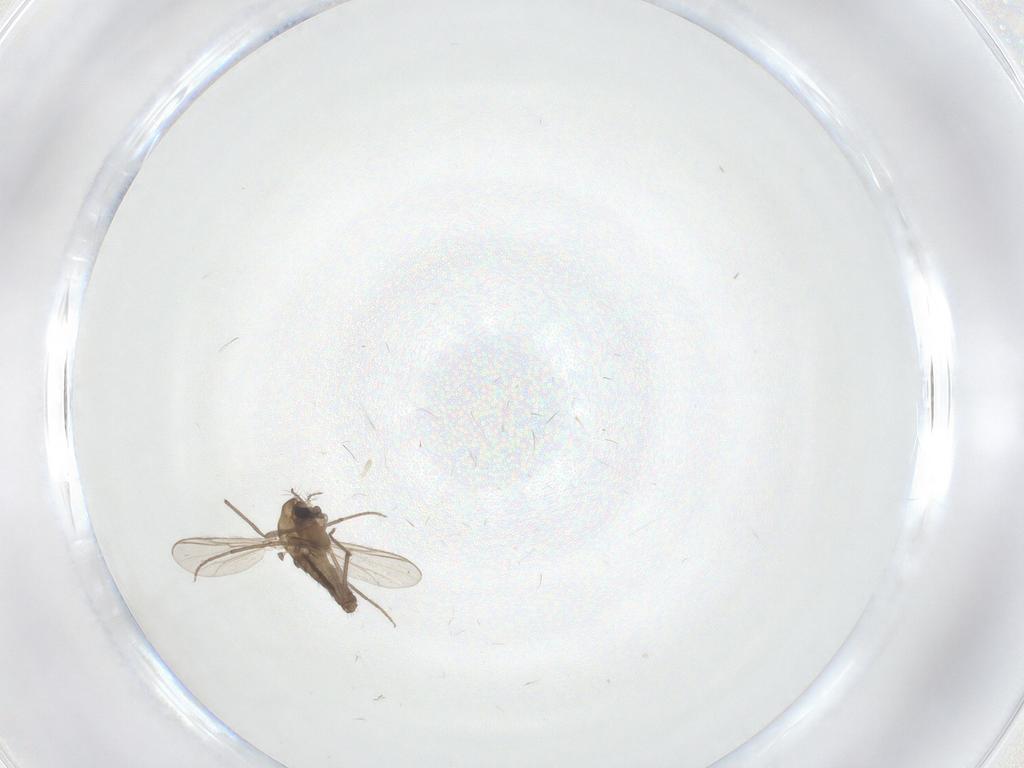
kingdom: Animalia
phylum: Arthropoda
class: Insecta
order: Diptera
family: Chironomidae
